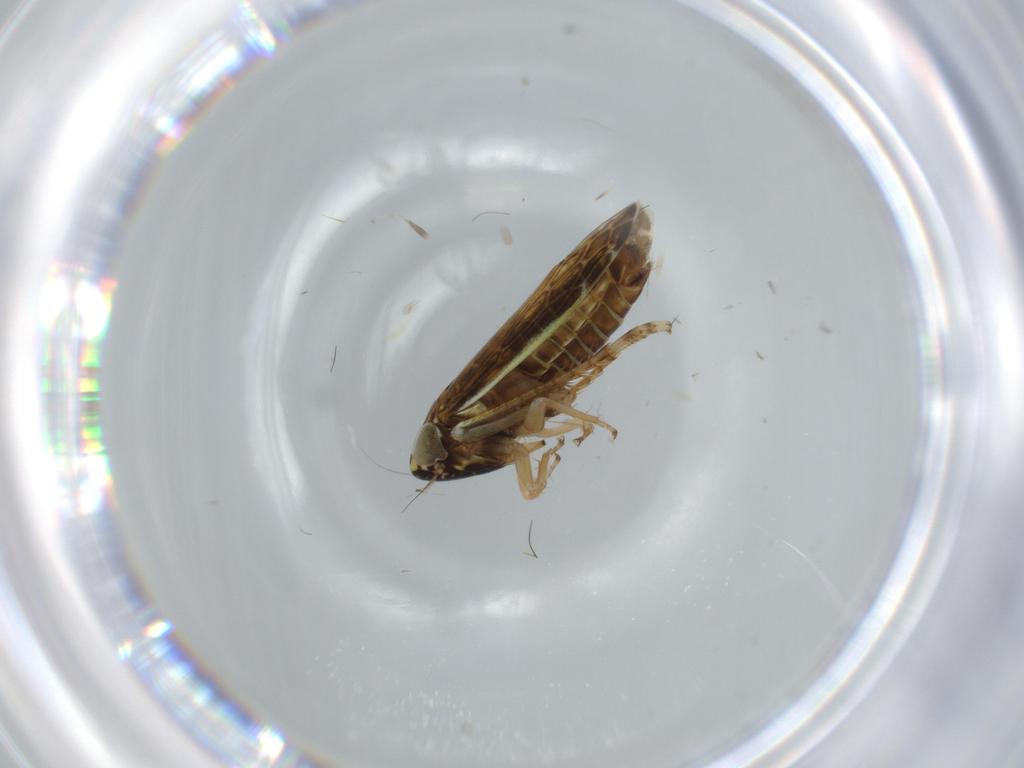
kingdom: Animalia
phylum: Arthropoda
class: Insecta
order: Hemiptera
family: Cicadellidae
